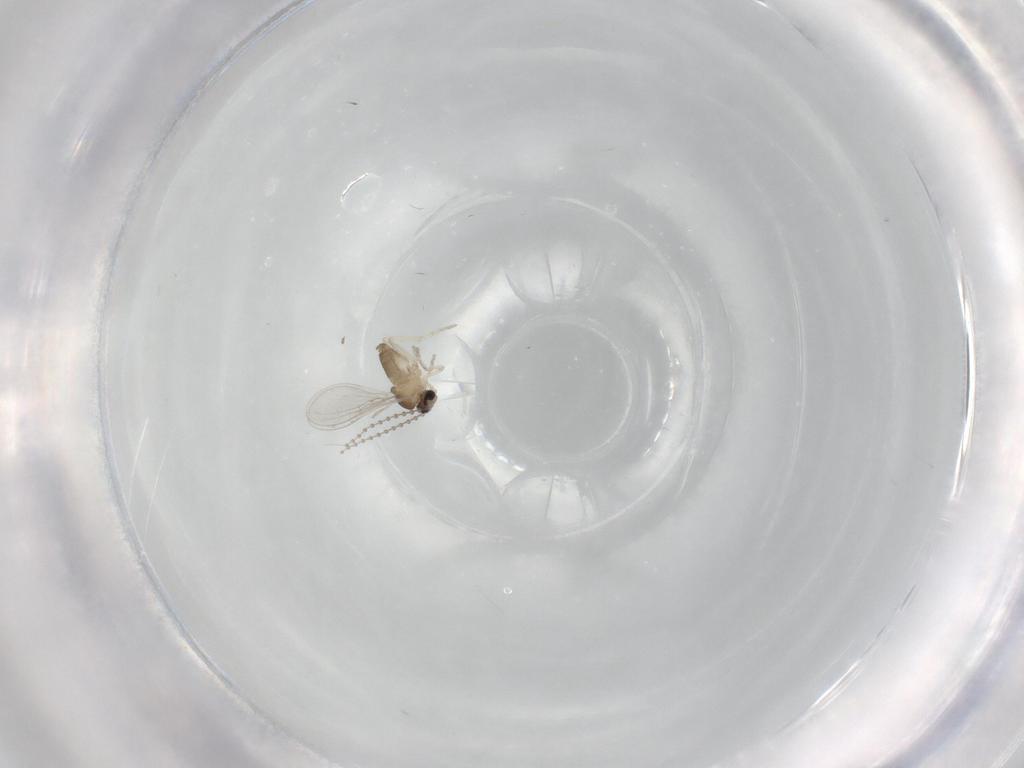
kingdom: Animalia
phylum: Arthropoda
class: Insecta
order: Diptera
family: Cecidomyiidae
